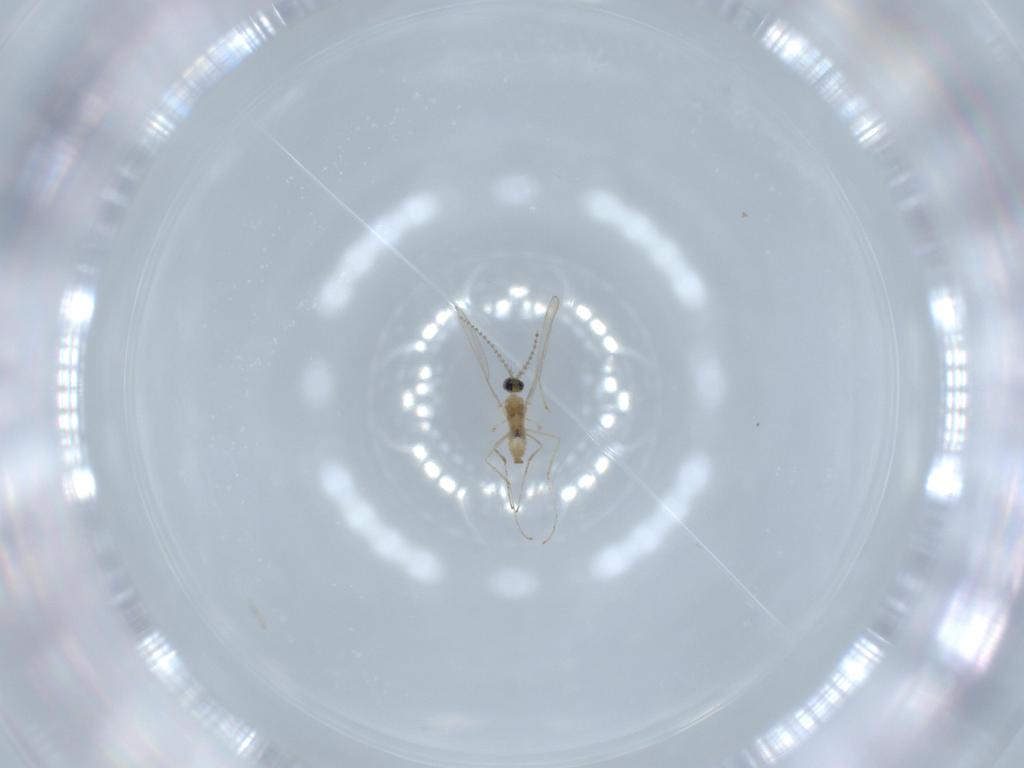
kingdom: Animalia
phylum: Arthropoda
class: Insecta
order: Diptera
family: Cecidomyiidae
